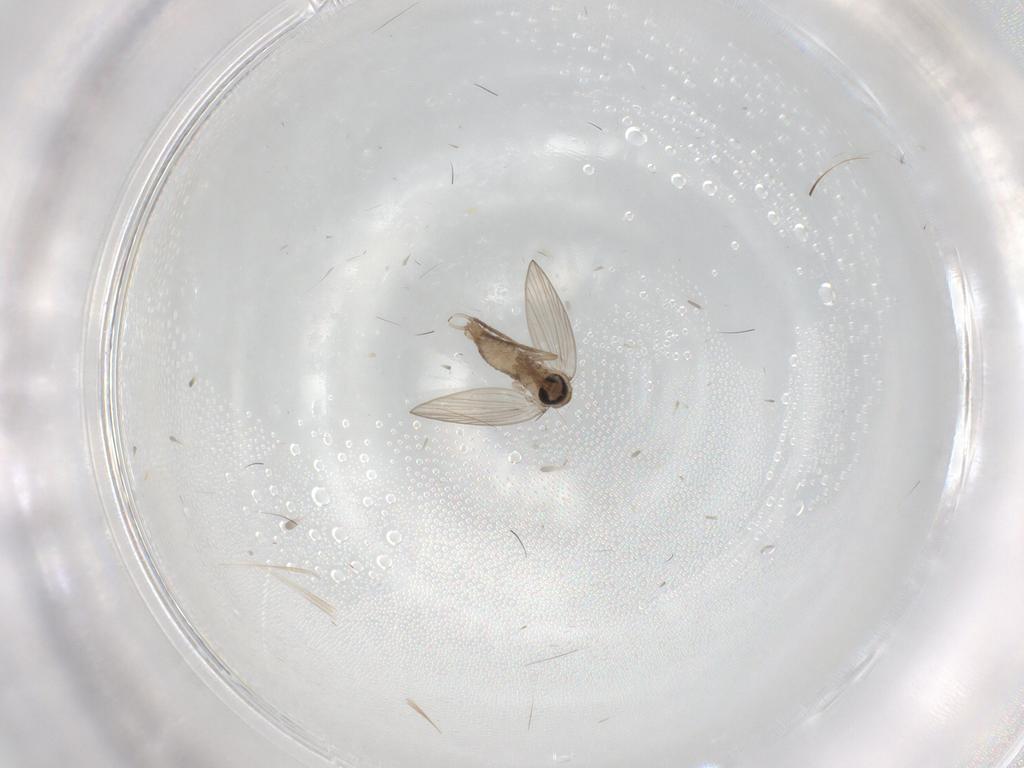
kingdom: Animalia
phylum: Arthropoda
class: Insecta
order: Diptera
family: Psychodidae
